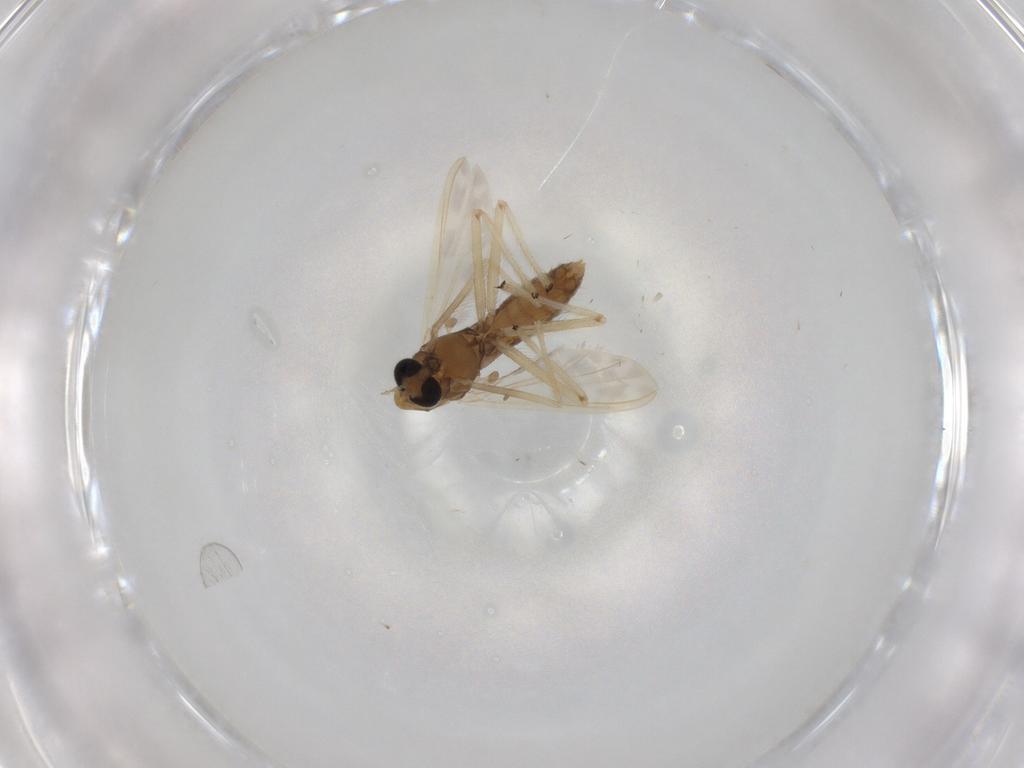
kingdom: Animalia
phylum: Arthropoda
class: Insecta
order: Diptera
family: Chironomidae
